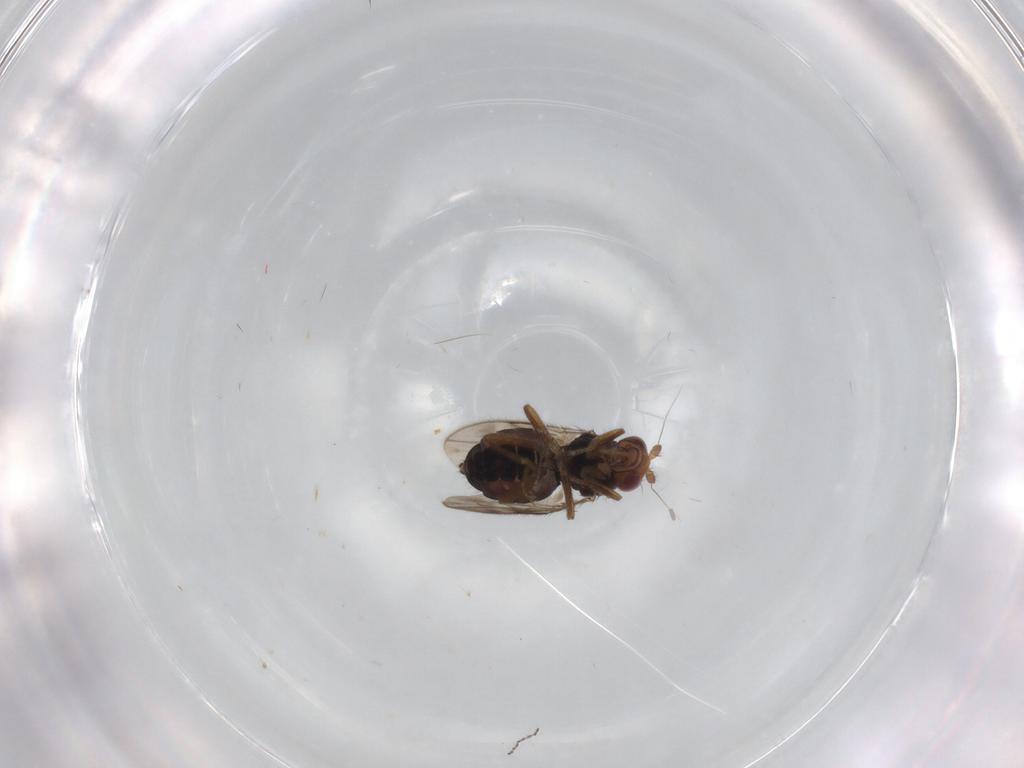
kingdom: Animalia
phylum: Arthropoda
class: Insecta
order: Diptera
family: Sphaeroceridae
